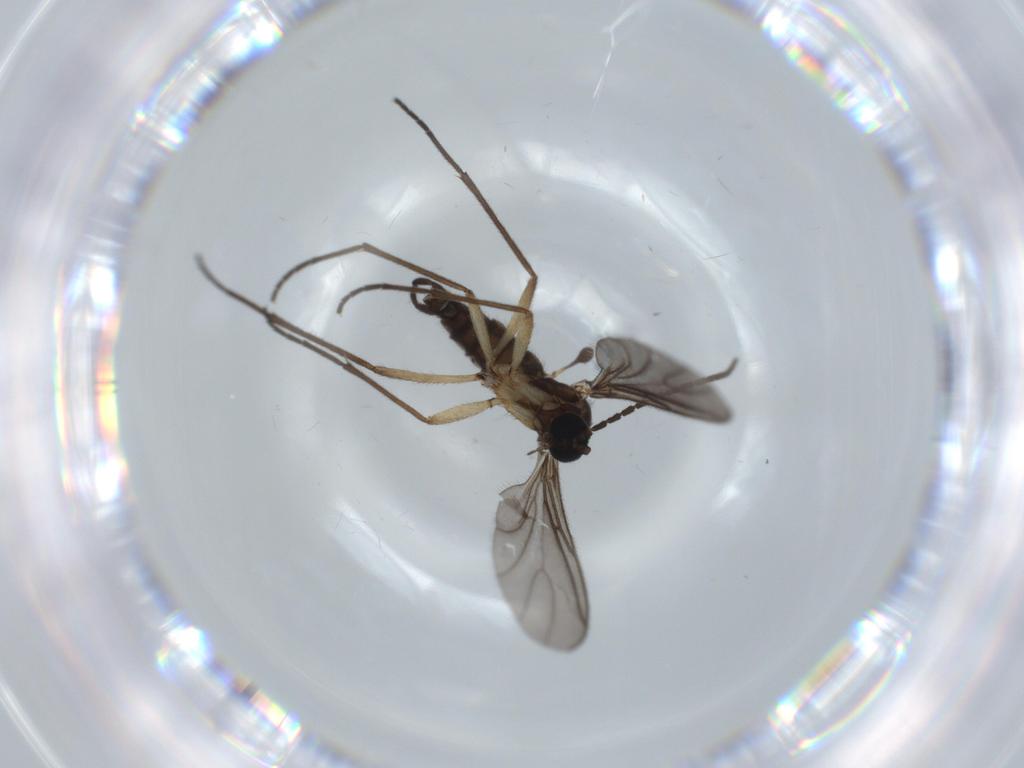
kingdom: Animalia
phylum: Arthropoda
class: Insecta
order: Diptera
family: Sciaridae
